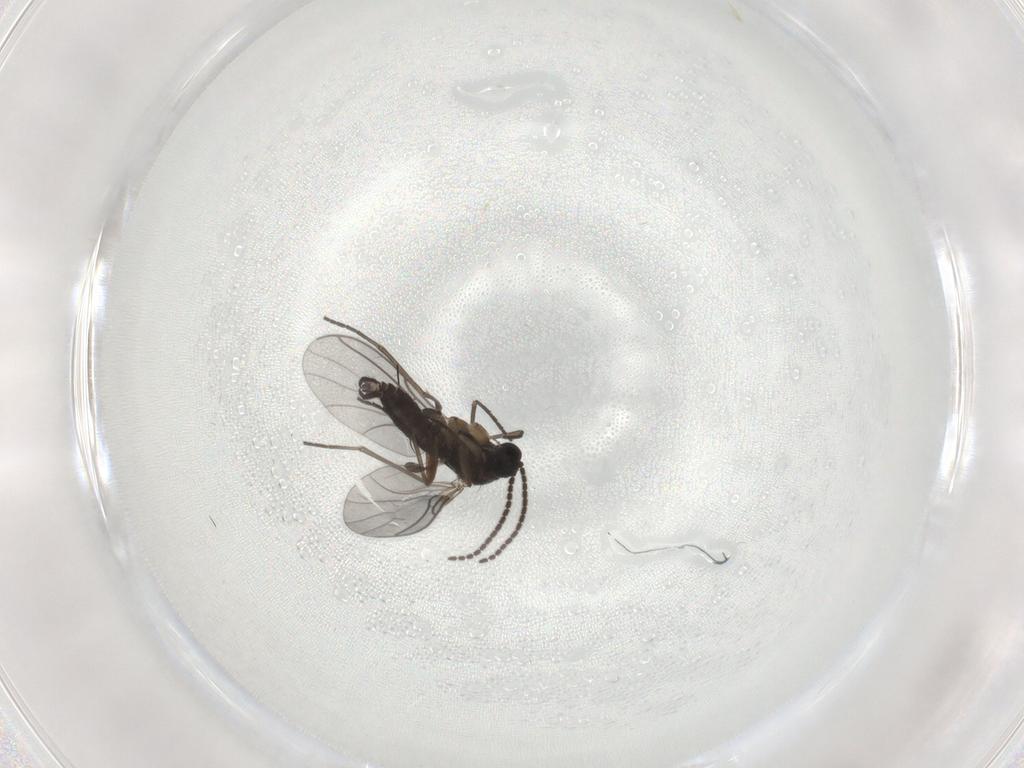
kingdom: Animalia
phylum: Arthropoda
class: Insecta
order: Diptera
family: Sciaridae
